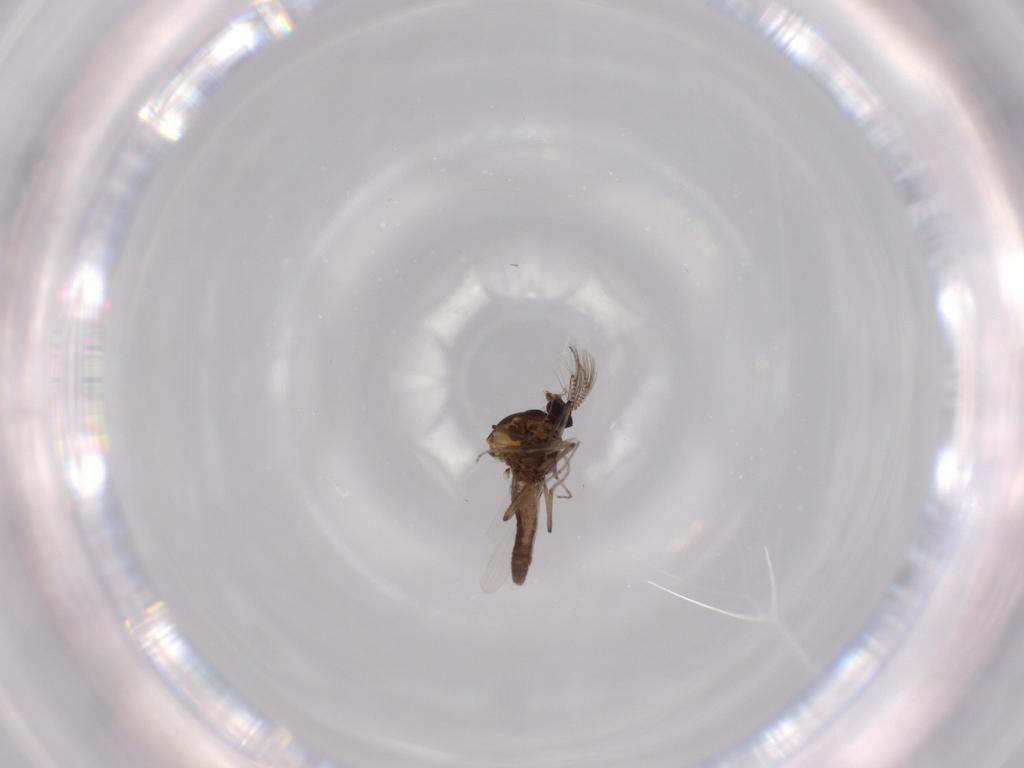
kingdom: Animalia
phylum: Arthropoda
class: Insecta
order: Diptera
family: Ceratopogonidae
